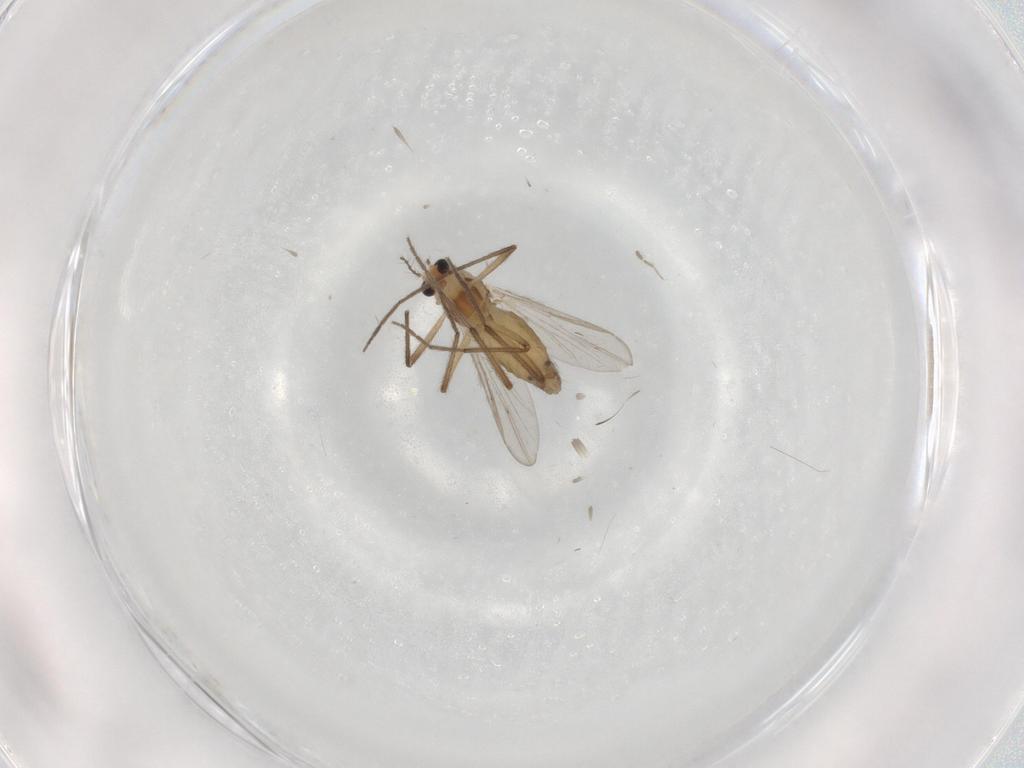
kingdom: Animalia
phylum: Arthropoda
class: Insecta
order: Diptera
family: Chironomidae
